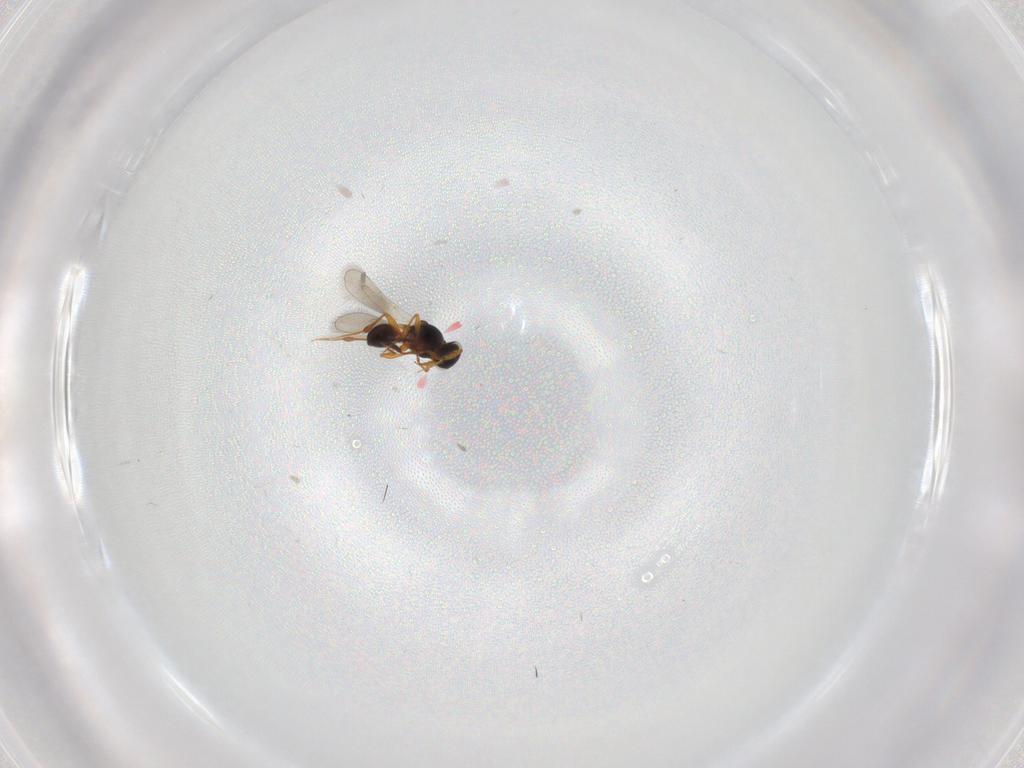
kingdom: Animalia
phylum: Arthropoda
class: Insecta
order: Hymenoptera
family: Platygastridae
